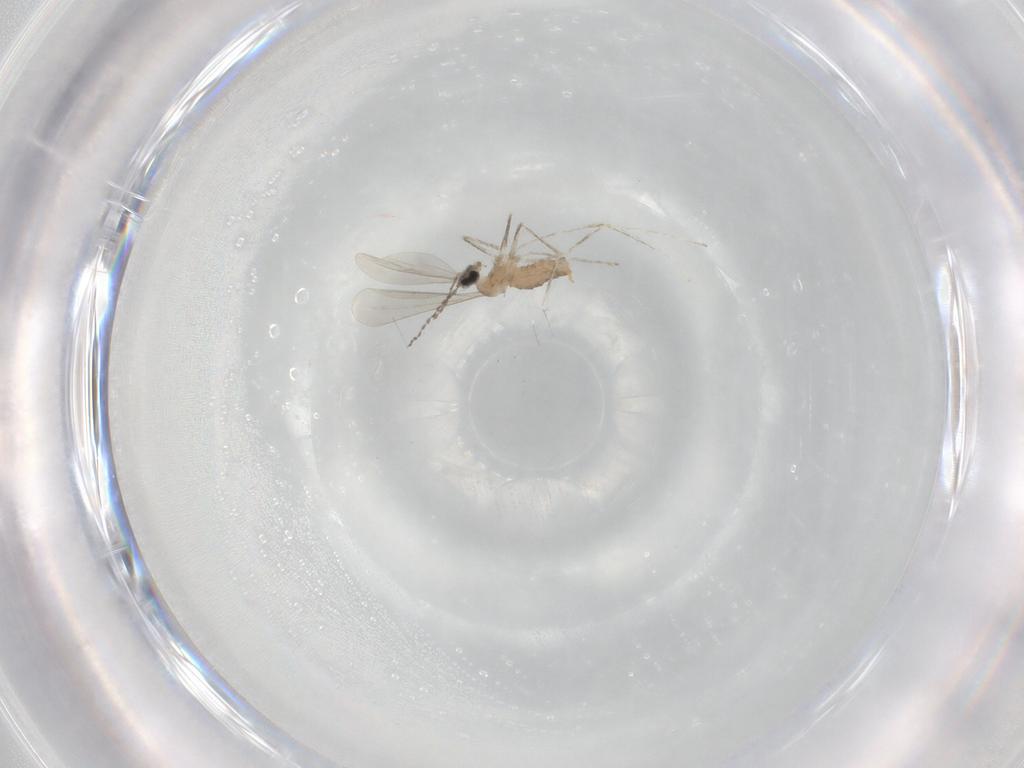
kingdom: Animalia
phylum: Arthropoda
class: Insecta
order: Diptera
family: Cecidomyiidae
